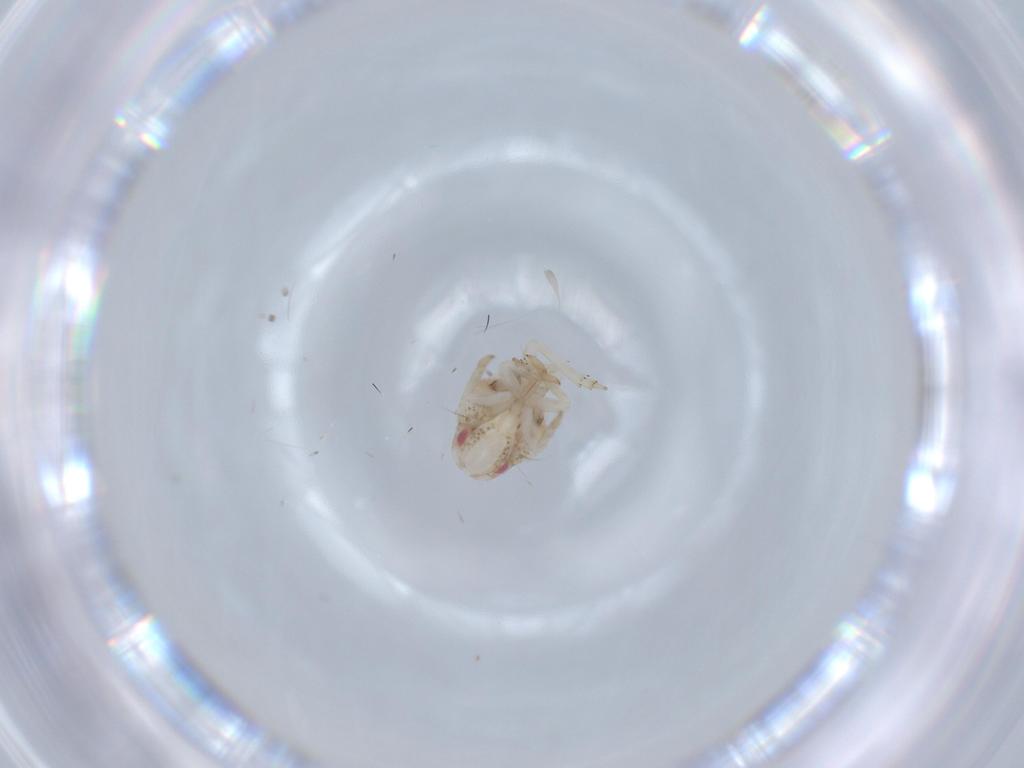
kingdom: Animalia
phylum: Arthropoda
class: Insecta
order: Hemiptera
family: Acanaloniidae
